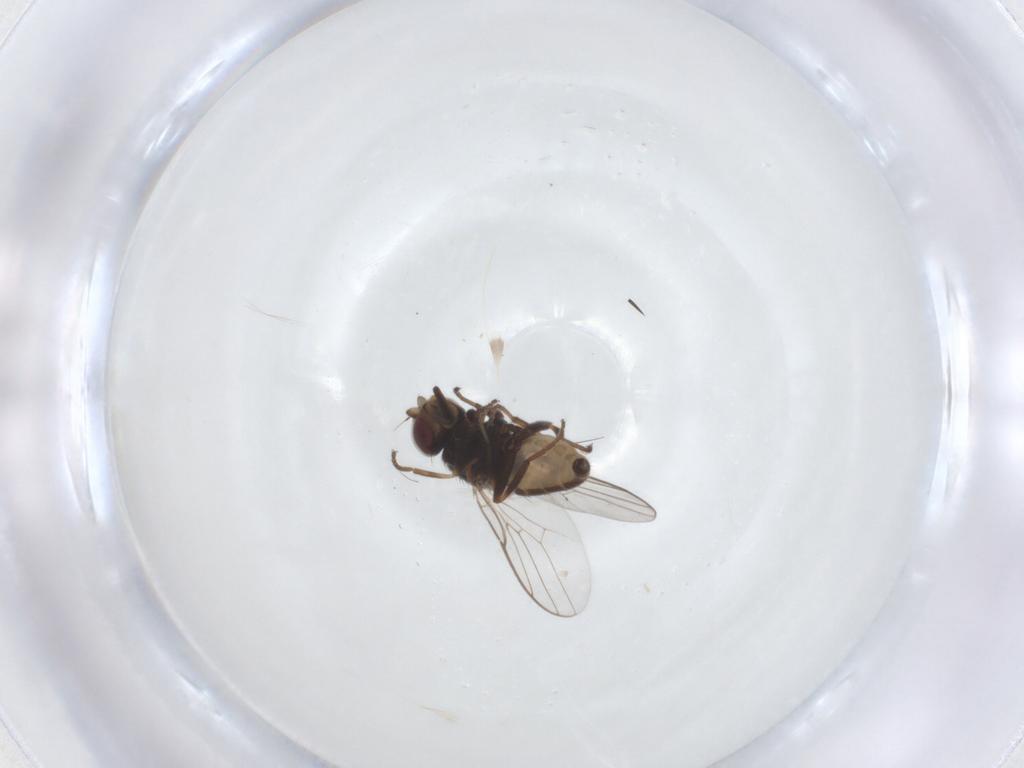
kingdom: Animalia
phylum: Arthropoda
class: Insecta
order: Diptera
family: Chloropidae
